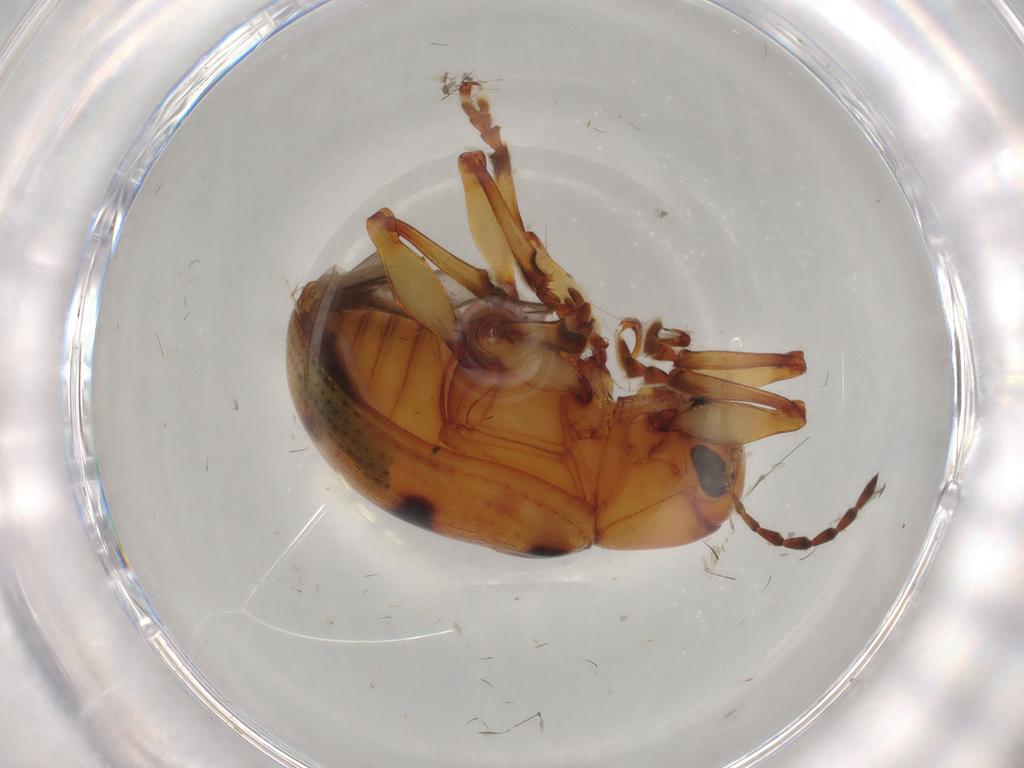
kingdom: Animalia
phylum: Arthropoda
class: Insecta
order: Coleoptera
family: Chrysomelidae
